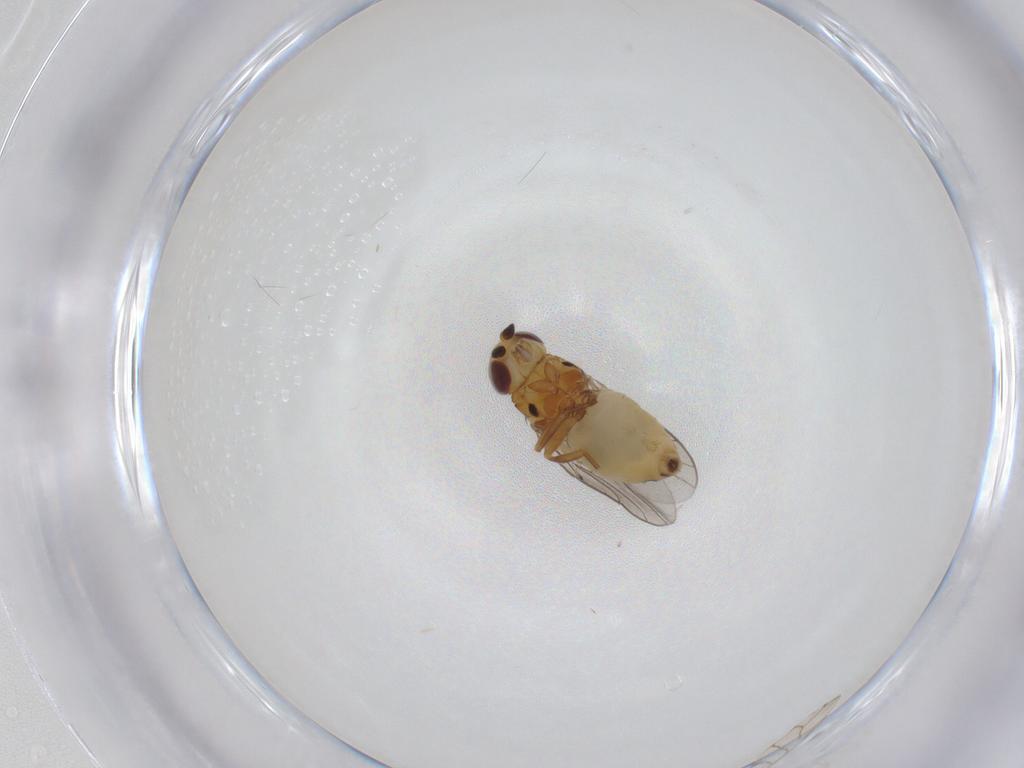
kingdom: Animalia
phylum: Arthropoda
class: Insecta
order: Diptera
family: Chloropidae
